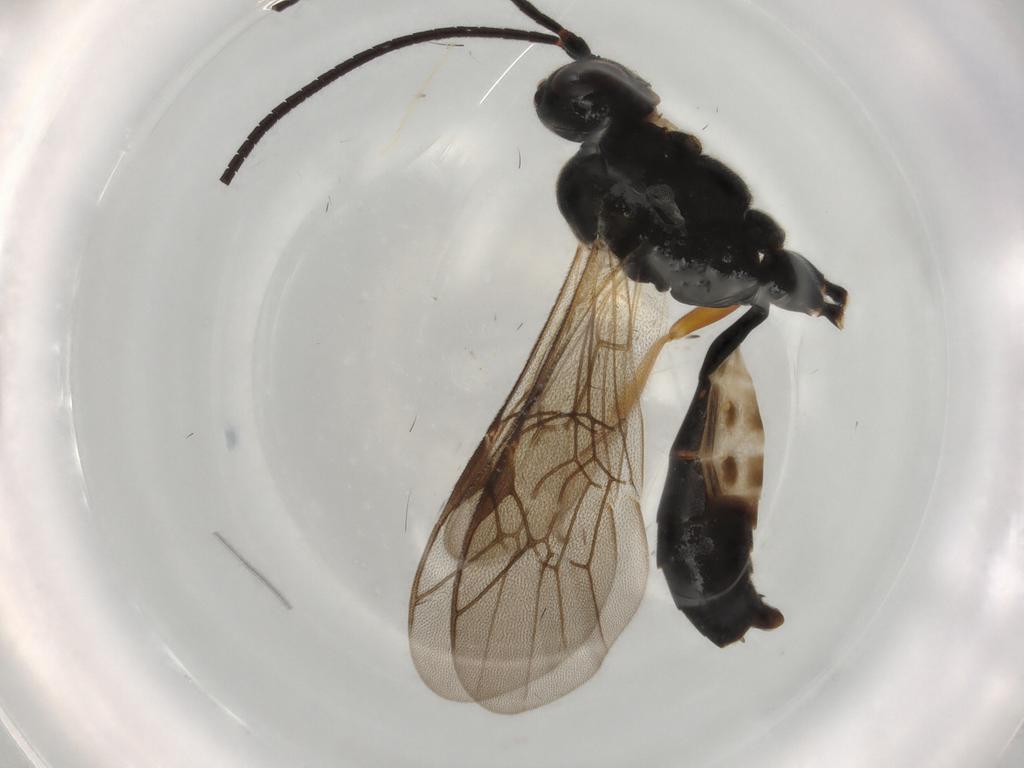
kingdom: Animalia
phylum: Arthropoda
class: Insecta
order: Hymenoptera
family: Ichneumonidae
